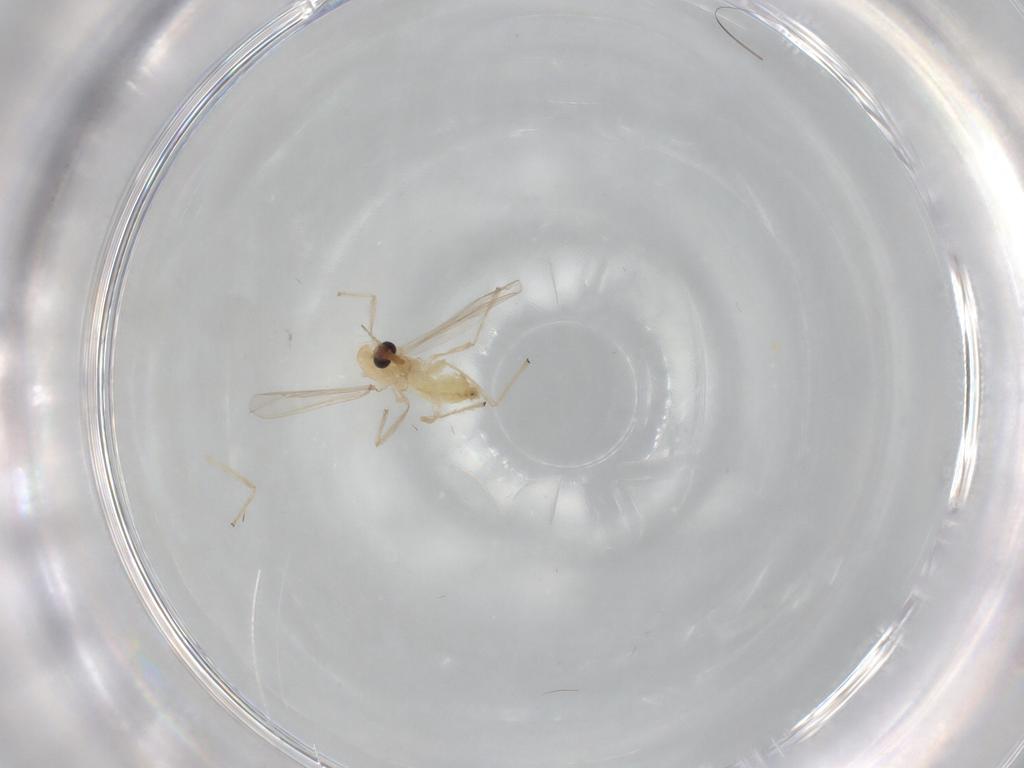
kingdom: Animalia
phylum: Arthropoda
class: Insecta
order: Diptera
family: Chironomidae
